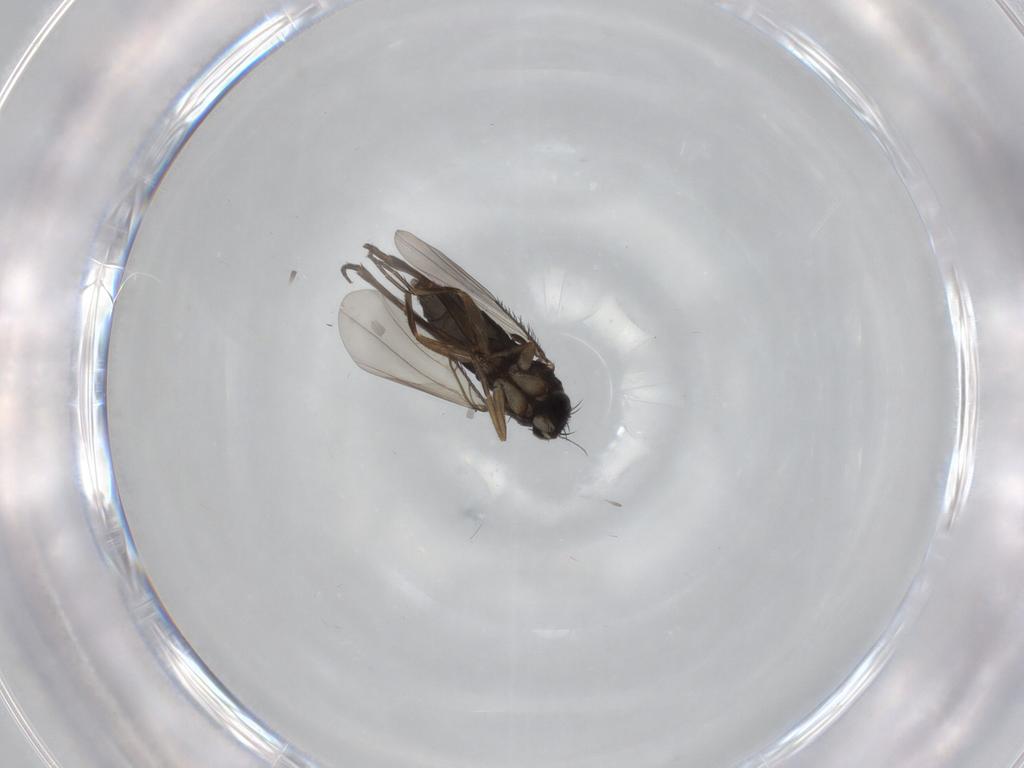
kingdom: Animalia
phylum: Arthropoda
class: Insecta
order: Diptera
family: Phoridae
